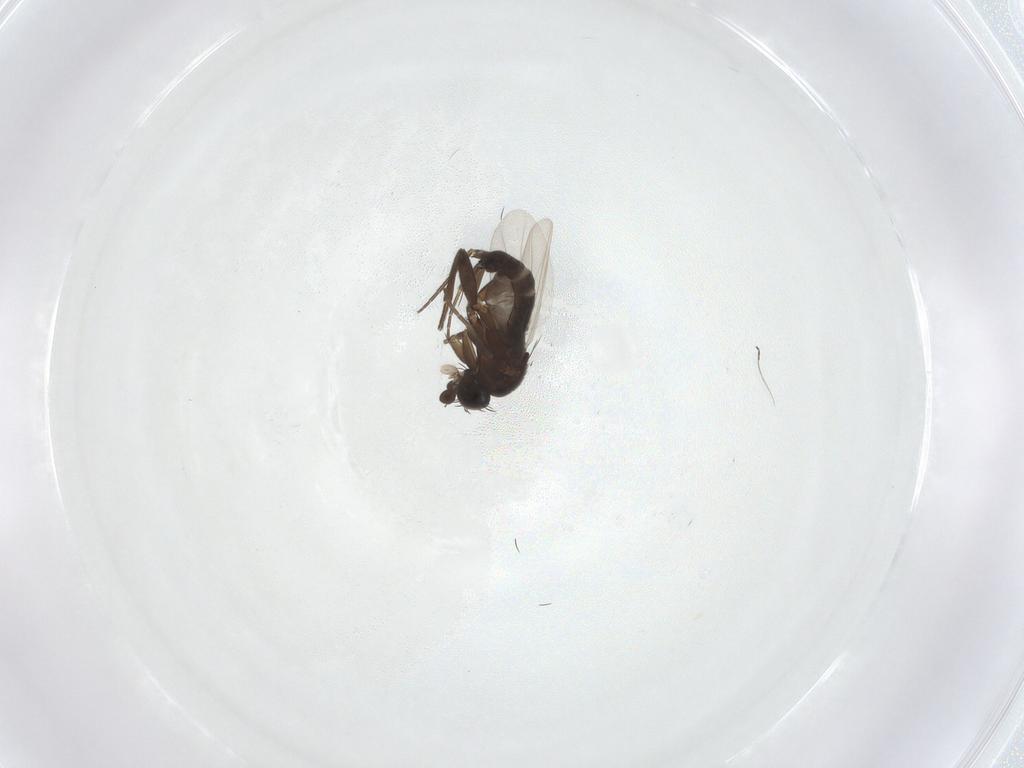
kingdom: Animalia
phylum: Arthropoda
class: Insecta
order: Diptera
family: Phoridae
